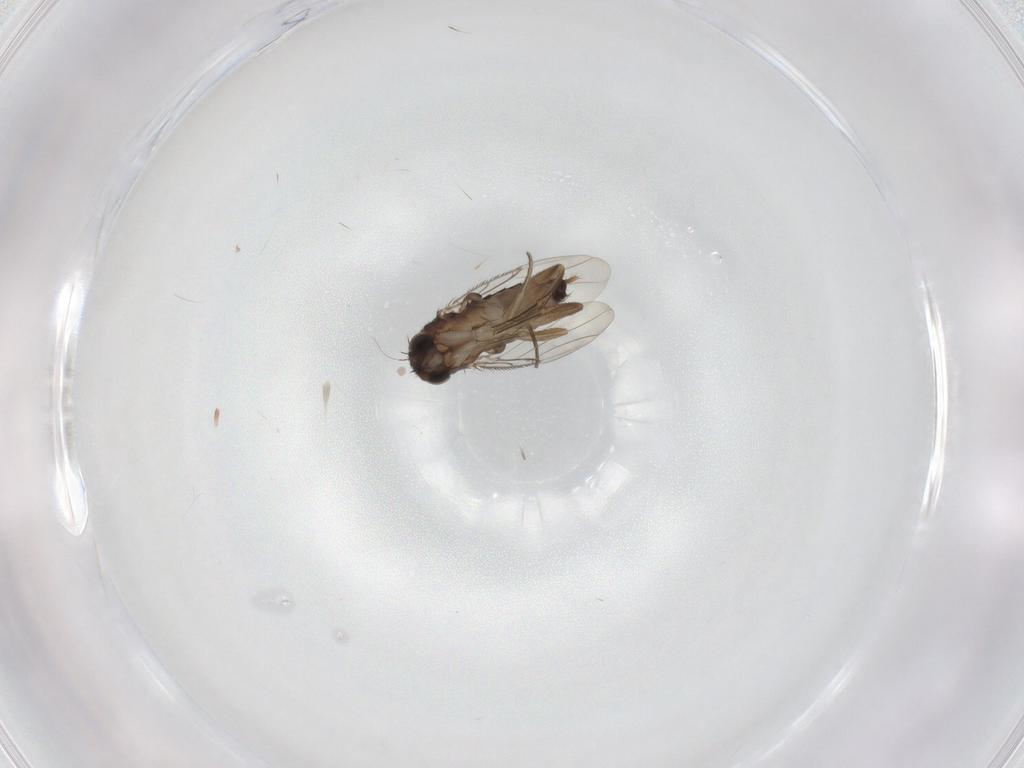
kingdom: Animalia
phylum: Arthropoda
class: Insecta
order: Diptera
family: Phoridae
